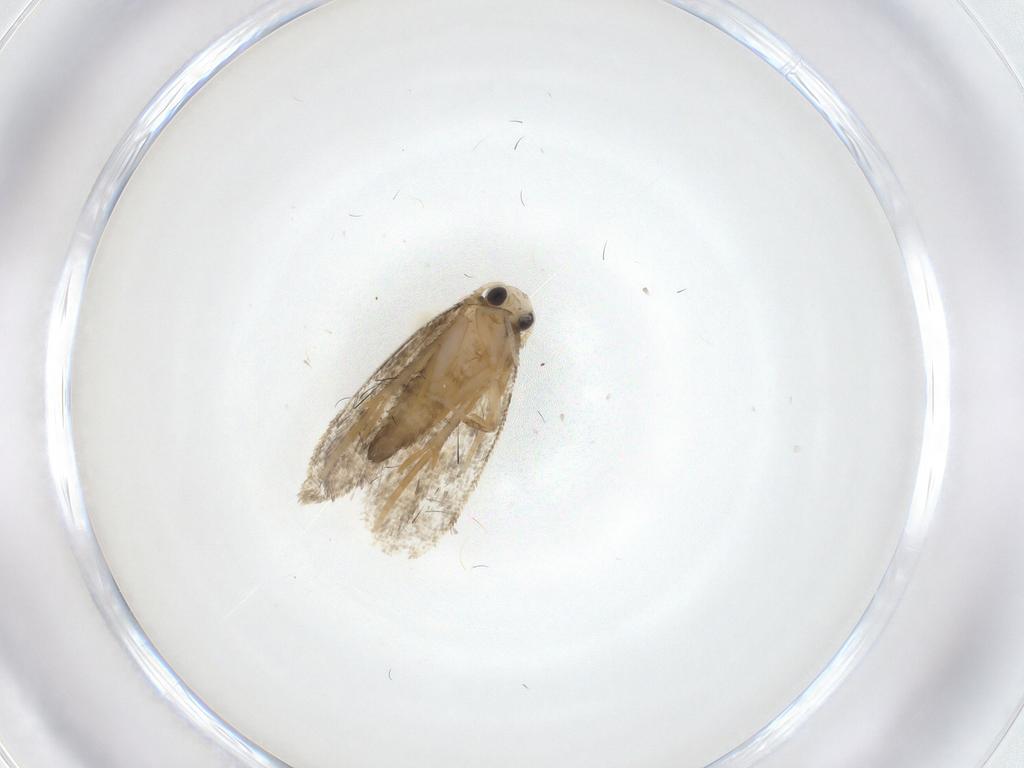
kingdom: Animalia
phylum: Arthropoda
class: Insecta
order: Lepidoptera
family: Psychidae
